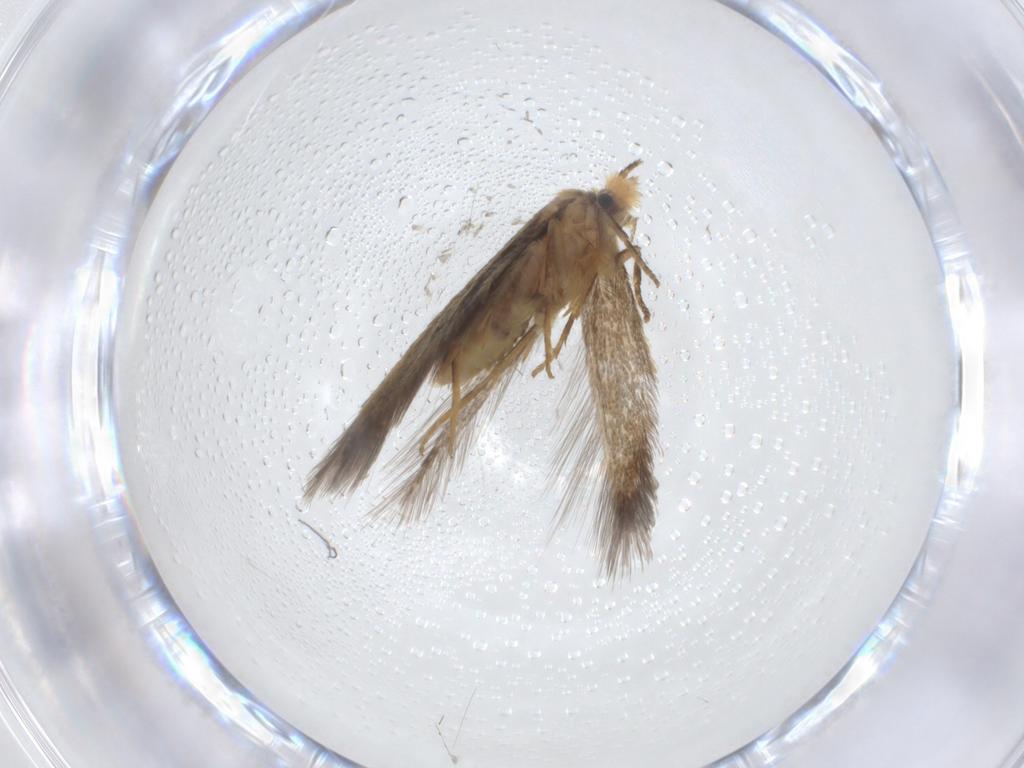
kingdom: Animalia
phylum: Arthropoda
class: Insecta
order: Lepidoptera
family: Nepticulidae
